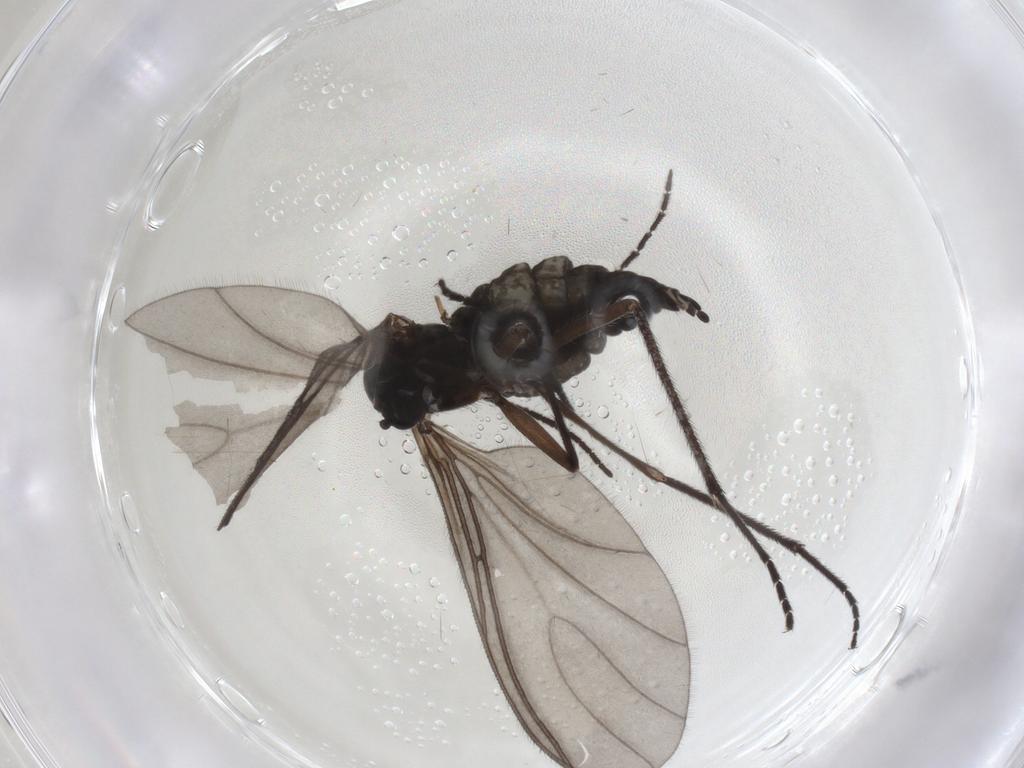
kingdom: Animalia
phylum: Arthropoda
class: Insecta
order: Diptera
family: Sciaridae
